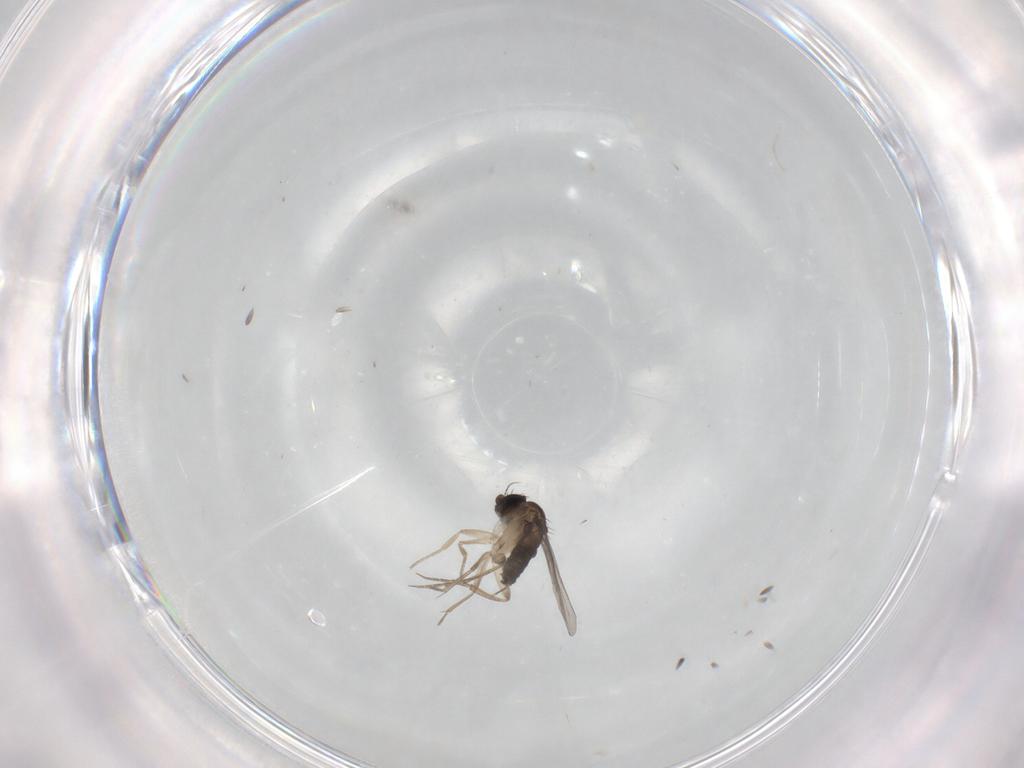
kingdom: Animalia
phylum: Arthropoda
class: Insecta
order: Diptera
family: Phoridae
